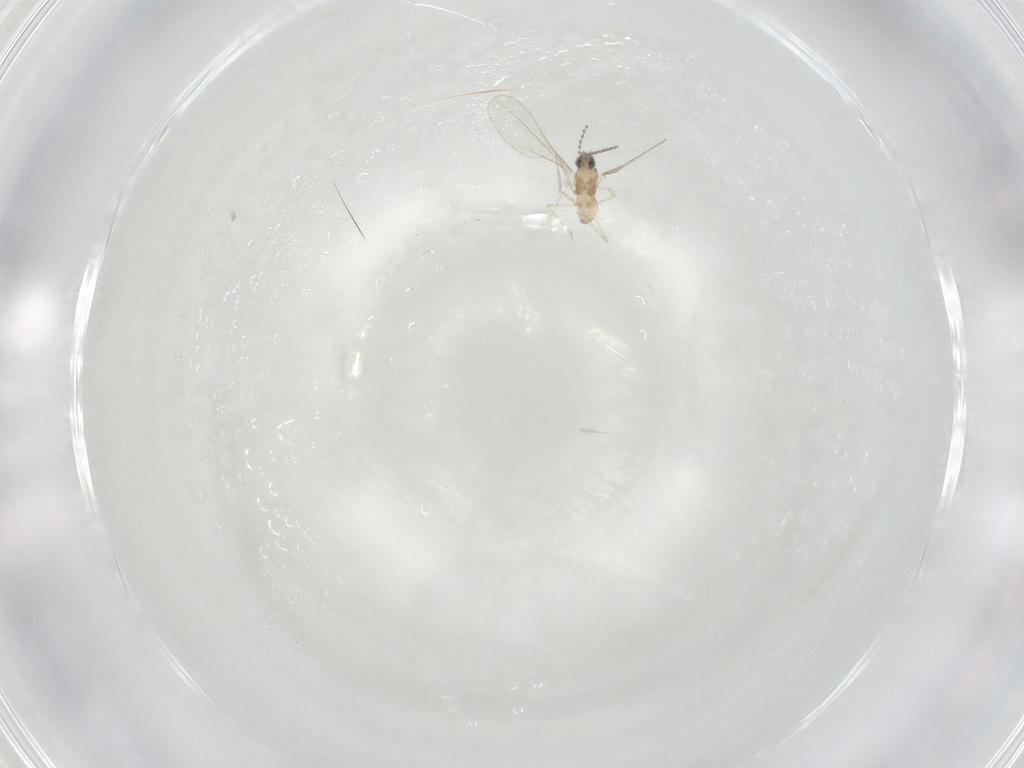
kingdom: Animalia
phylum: Arthropoda
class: Insecta
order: Diptera
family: Cecidomyiidae
